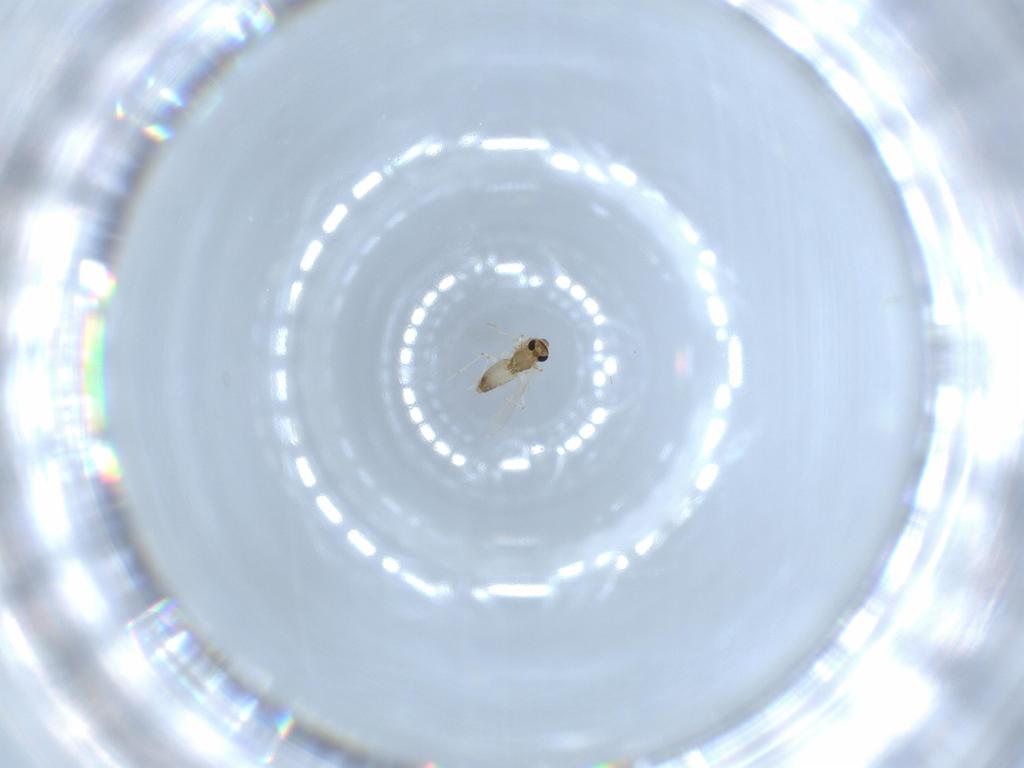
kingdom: Animalia
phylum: Arthropoda
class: Insecta
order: Diptera
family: Chironomidae
